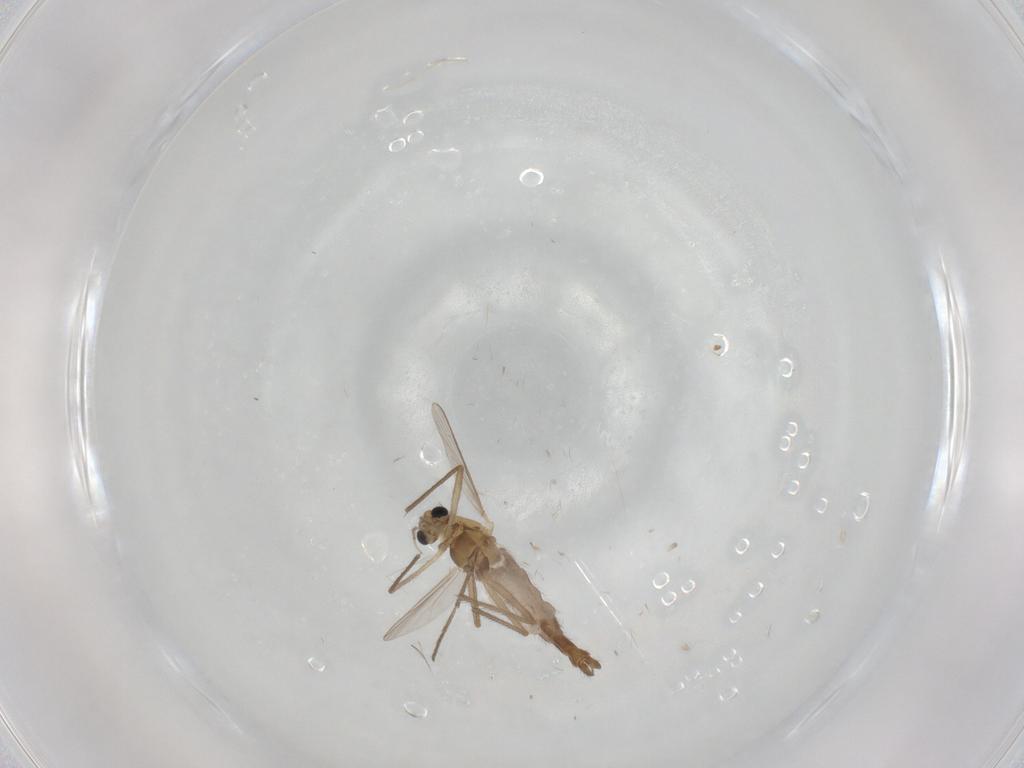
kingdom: Animalia
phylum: Arthropoda
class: Insecta
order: Diptera
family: Chironomidae
